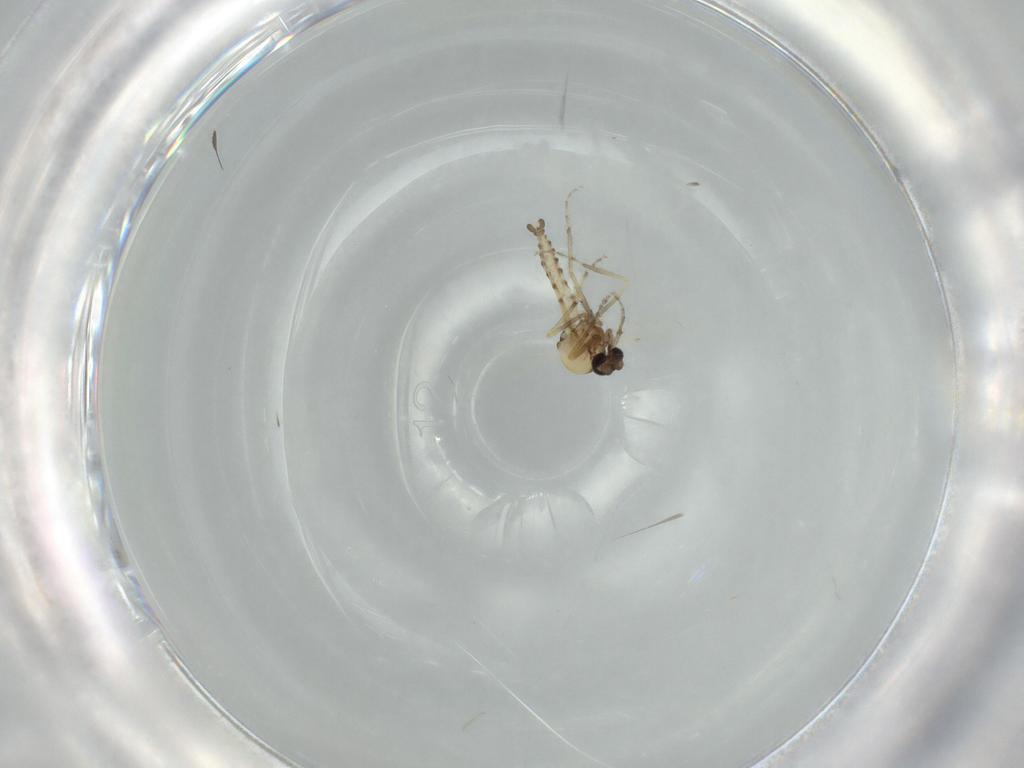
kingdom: Animalia
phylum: Arthropoda
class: Insecta
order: Diptera
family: Ceratopogonidae
